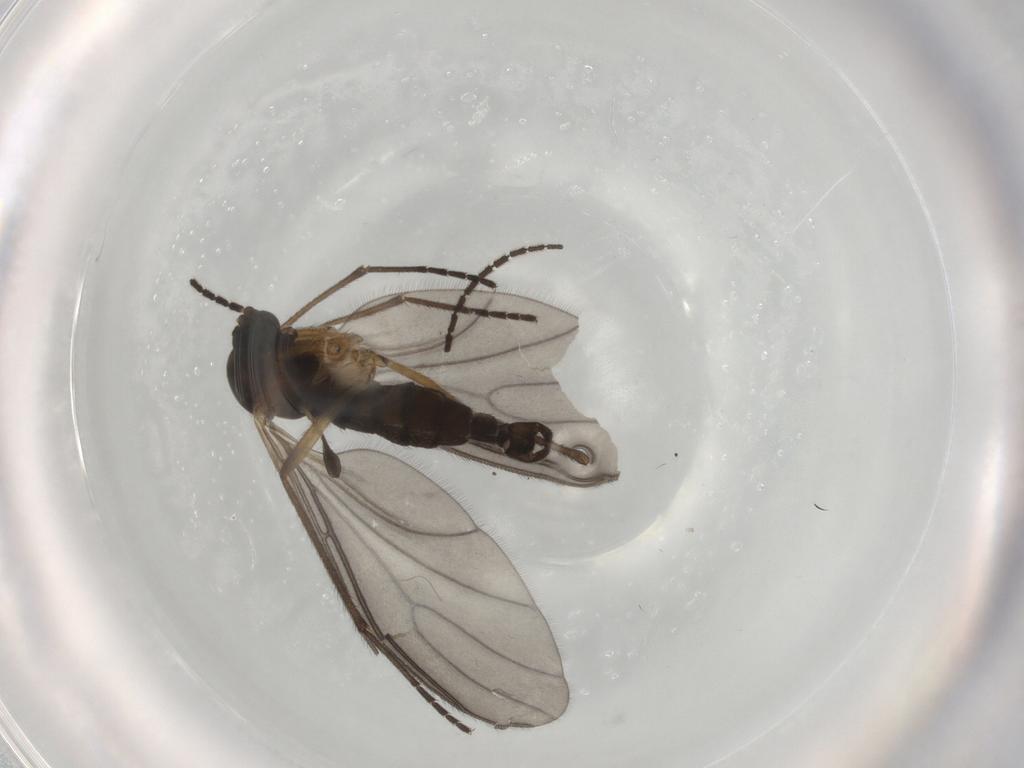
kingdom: Animalia
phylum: Arthropoda
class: Insecta
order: Diptera
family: Sciaridae
